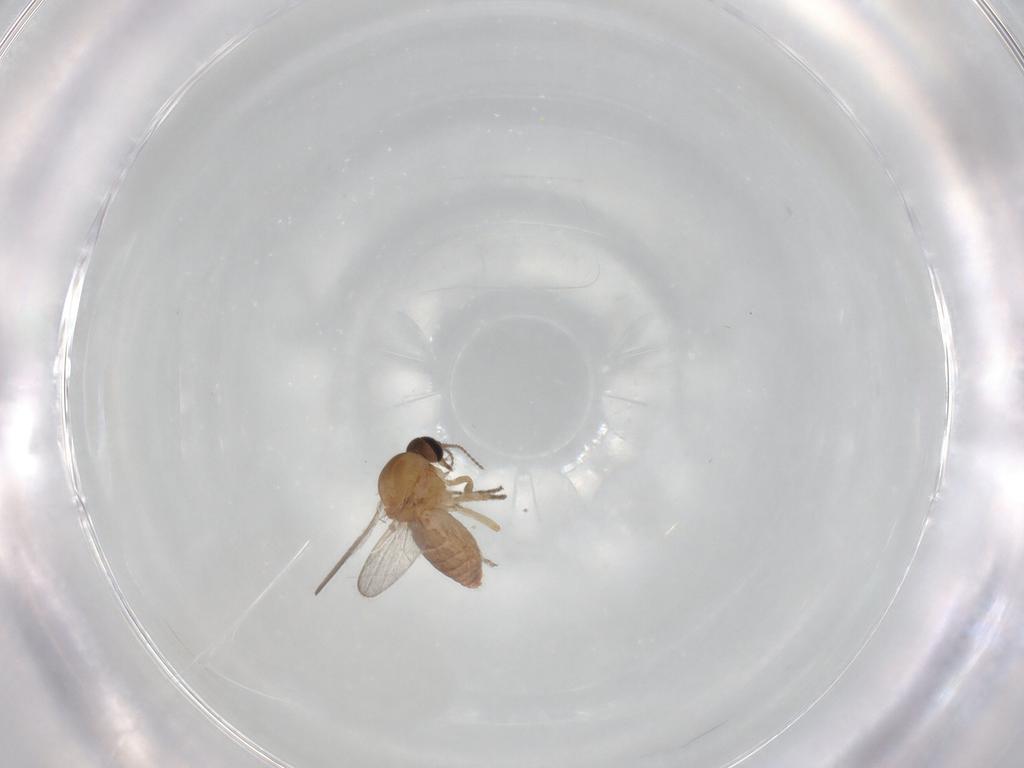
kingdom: Animalia
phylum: Arthropoda
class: Insecta
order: Diptera
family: Ceratopogonidae
